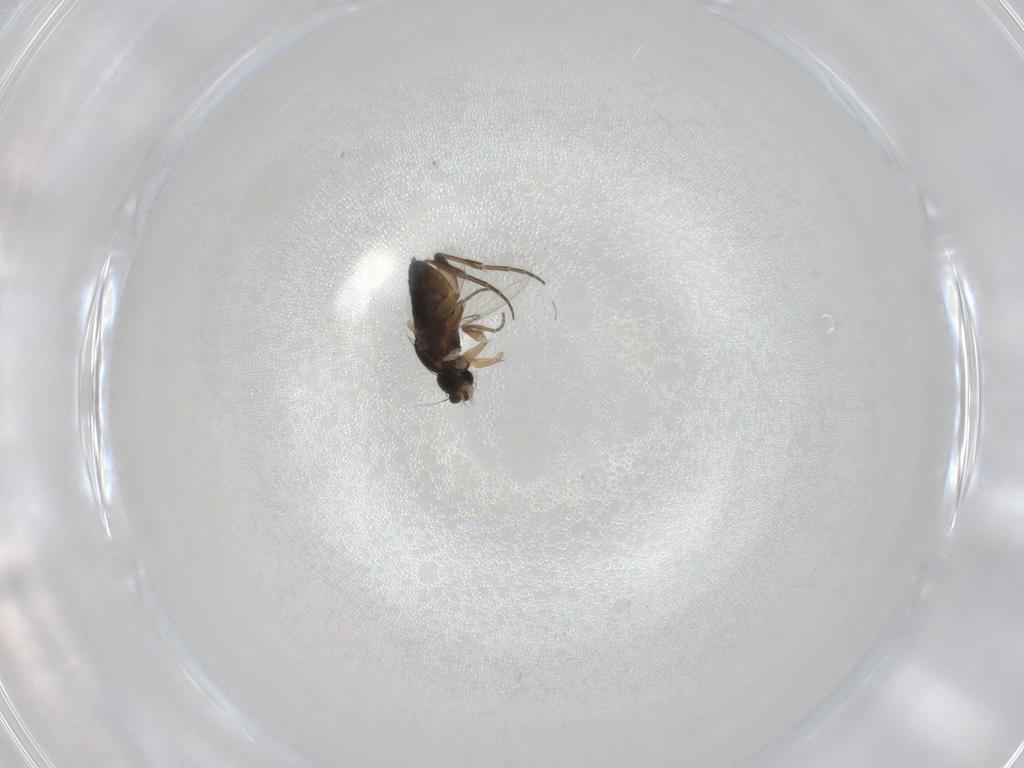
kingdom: Animalia
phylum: Arthropoda
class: Insecta
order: Diptera
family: Phoridae
